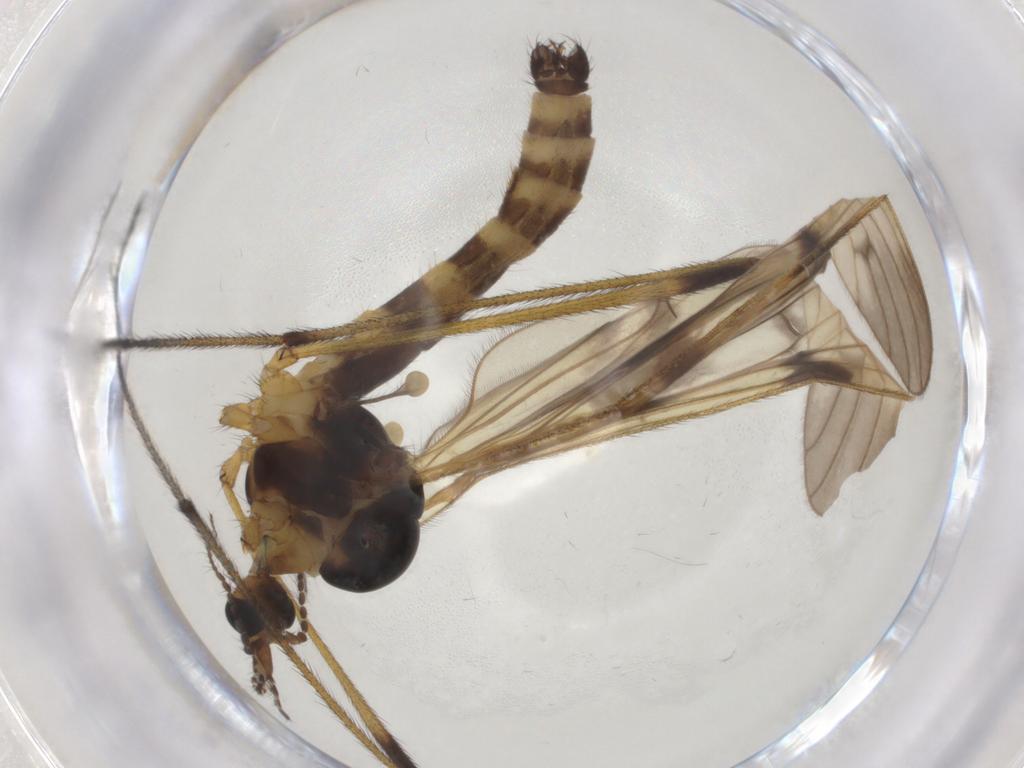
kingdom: Animalia
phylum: Arthropoda
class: Insecta
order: Diptera
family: Limoniidae
